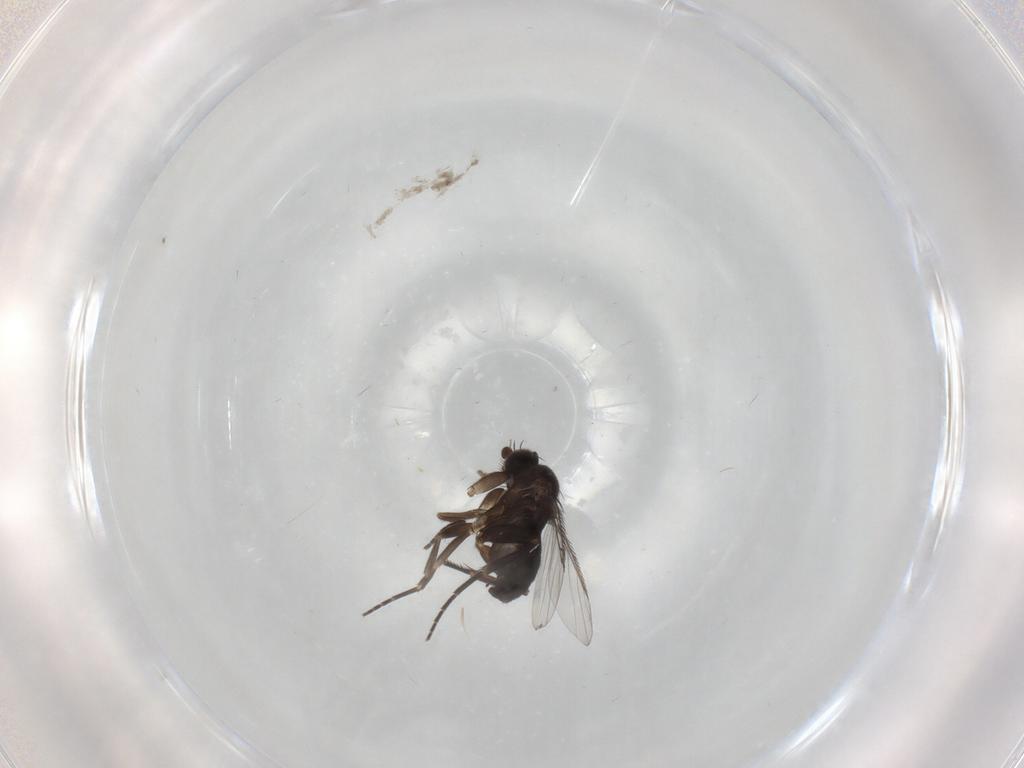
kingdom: Animalia
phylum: Arthropoda
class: Insecta
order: Diptera
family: Phoridae
